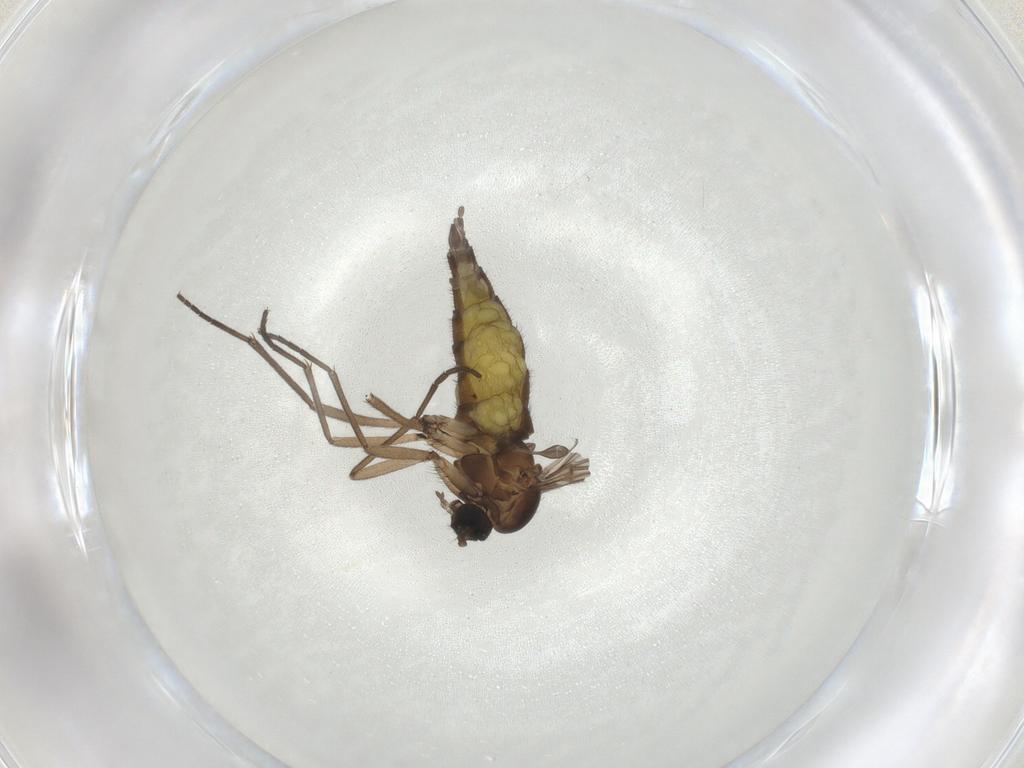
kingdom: Animalia
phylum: Arthropoda
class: Insecta
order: Diptera
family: Sciaridae
